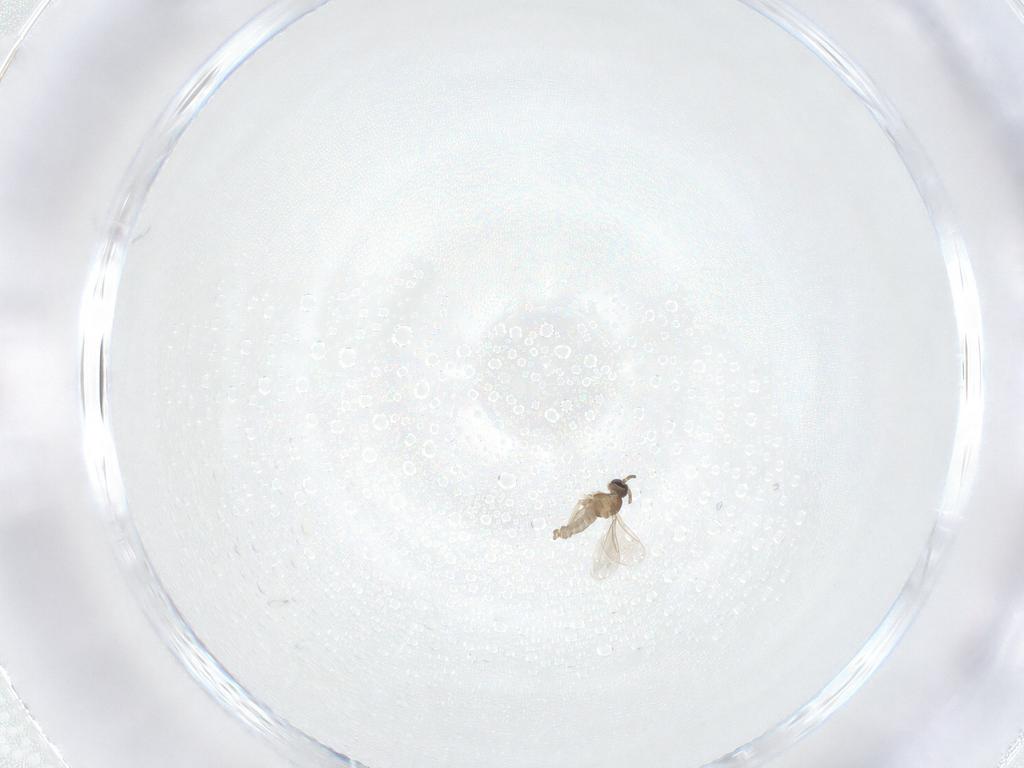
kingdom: Animalia
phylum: Arthropoda
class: Insecta
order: Diptera
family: Cecidomyiidae
